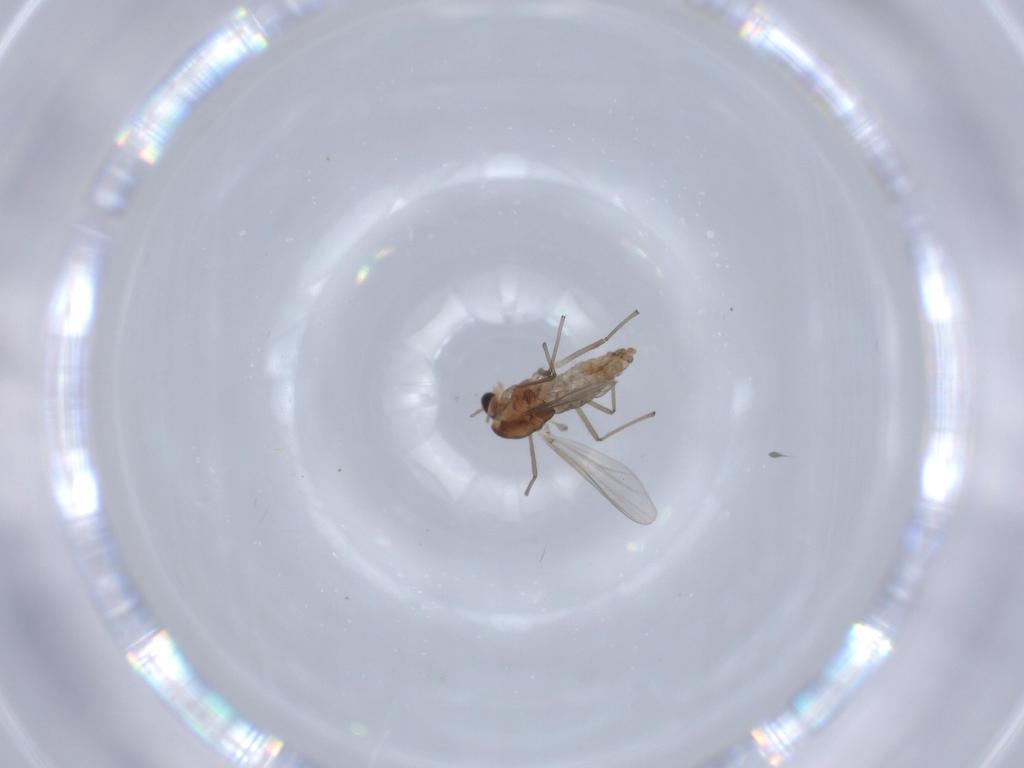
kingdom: Animalia
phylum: Arthropoda
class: Insecta
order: Diptera
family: Chironomidae
